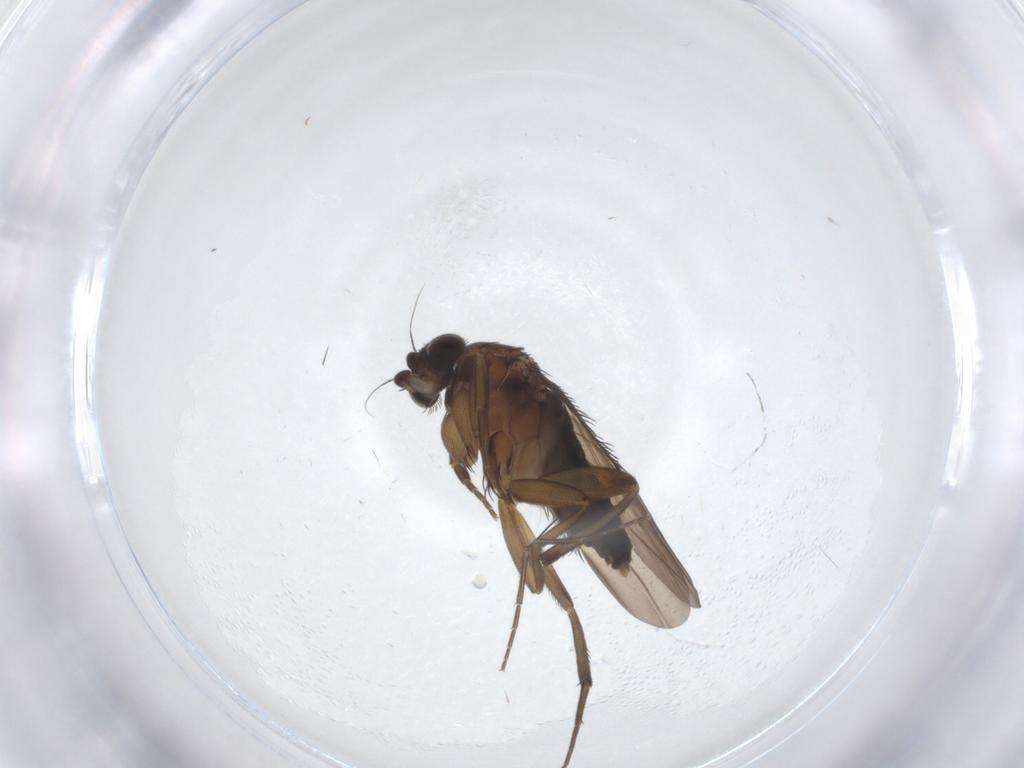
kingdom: Animalia
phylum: Arthropoda
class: Insecta
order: Diptera
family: Phoridae
